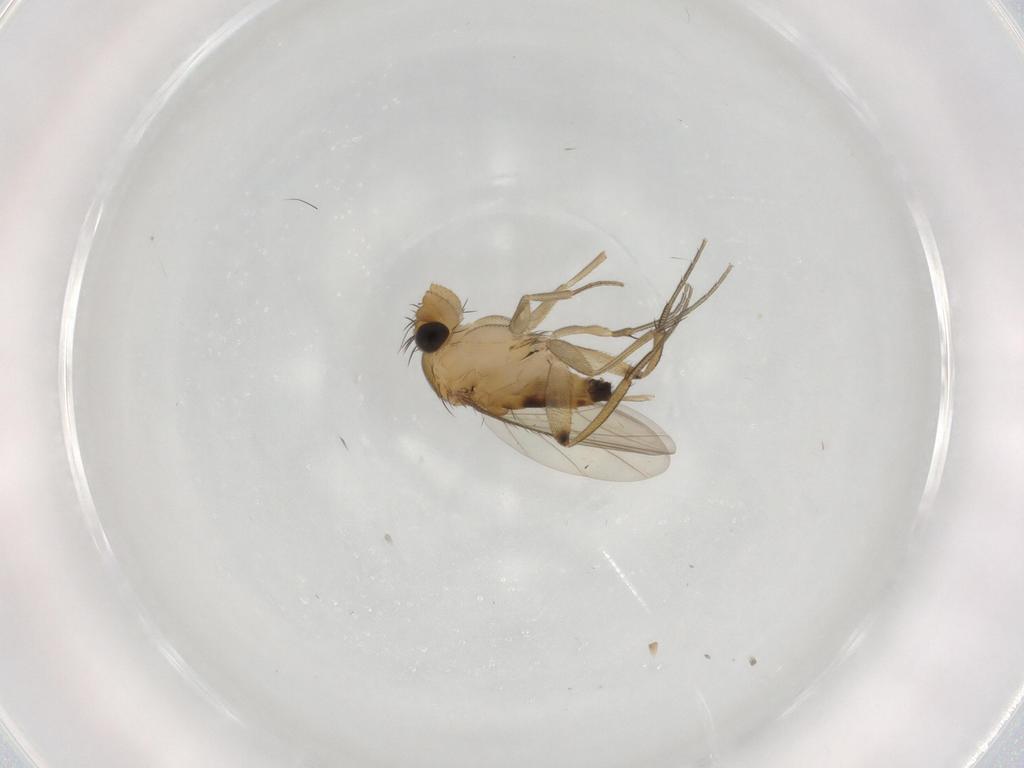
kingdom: Animalia
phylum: Arthropoda
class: Insecta
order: Diptera
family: Phoridae
